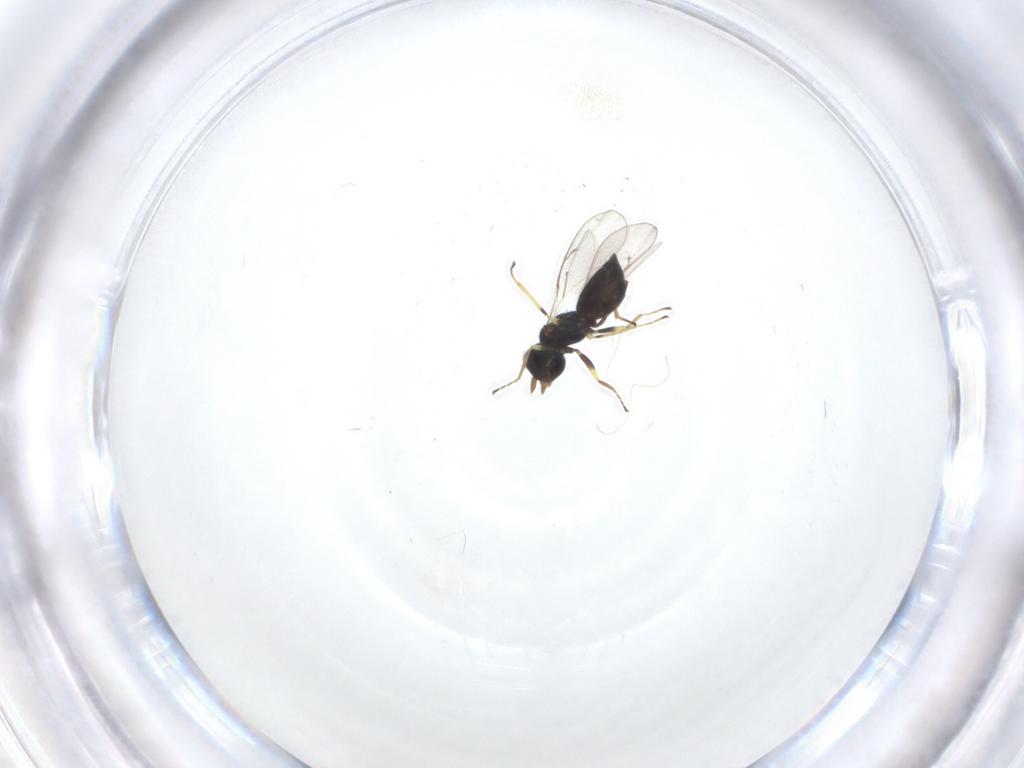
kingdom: Animalia
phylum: Arthropoda
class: Insecta
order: Hymenoptera
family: Eulophidae
